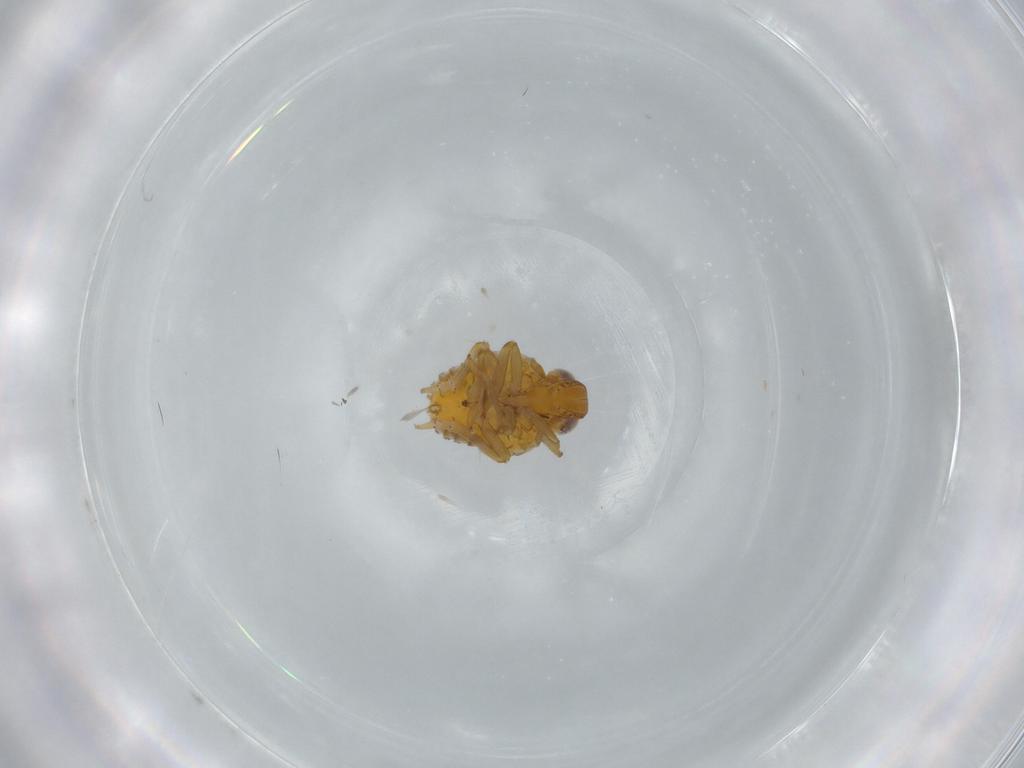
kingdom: Animalia
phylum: Arthropoda
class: Insecta
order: Hemiptera
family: Issidae
